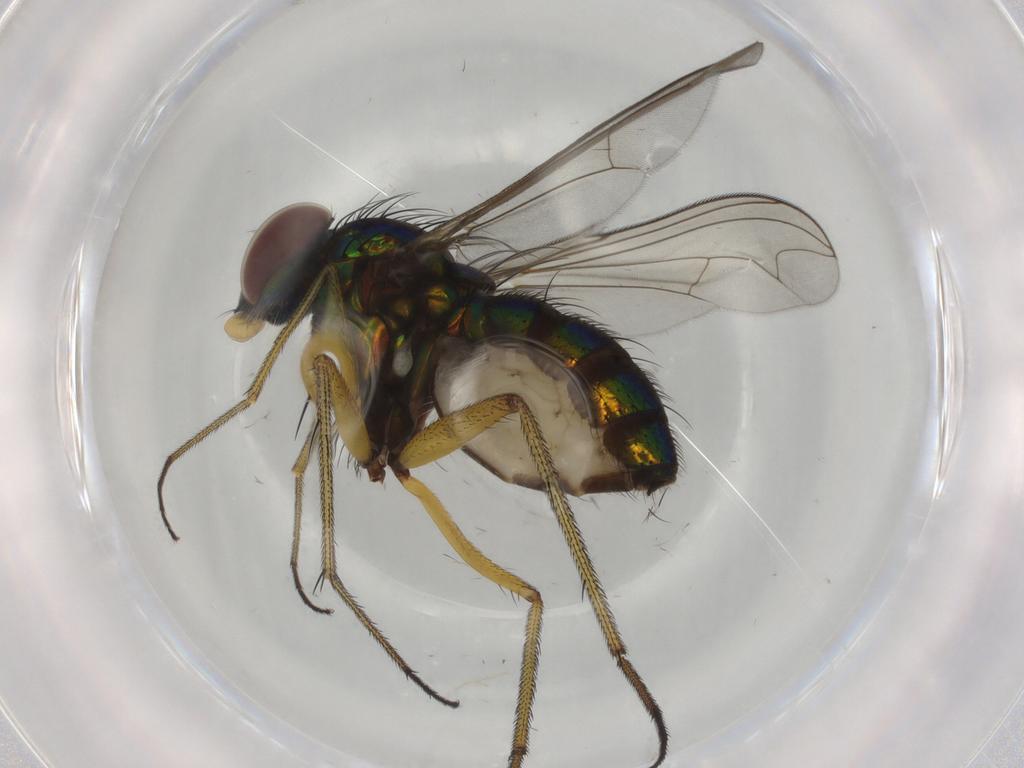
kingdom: Animalia
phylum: Arthropoda
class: Insecta
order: Diptera
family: Dolichopodidae
